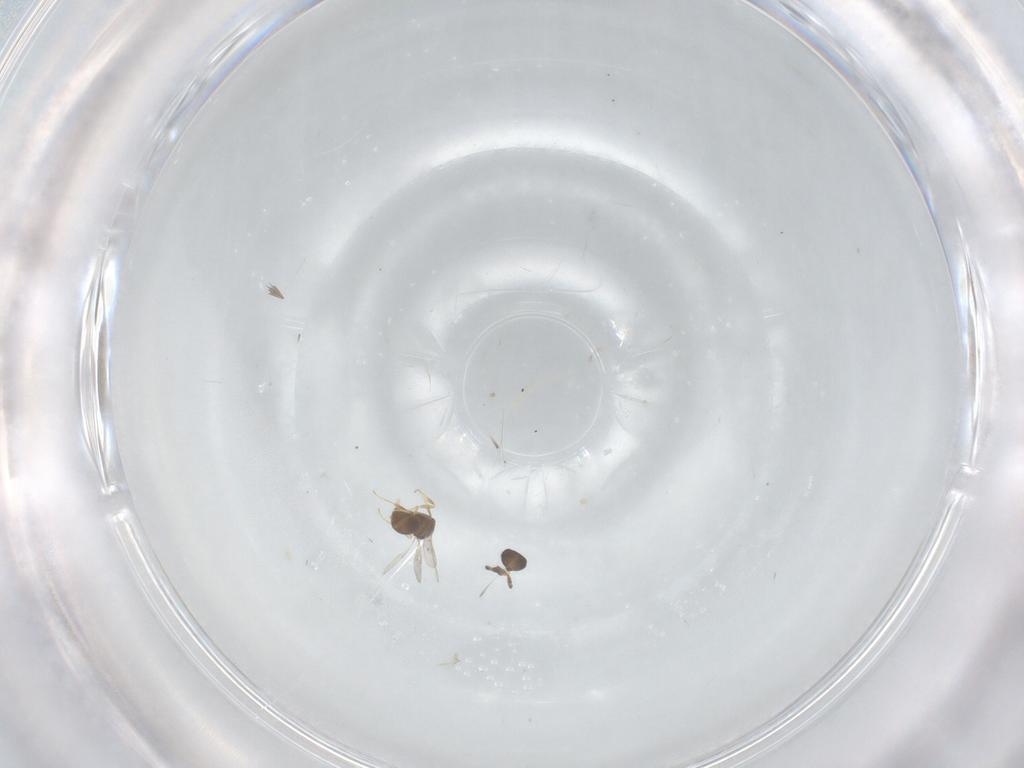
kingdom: Animalia
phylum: Arthropoda
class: Insecta
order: Hymenoptera
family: Scelionidae
